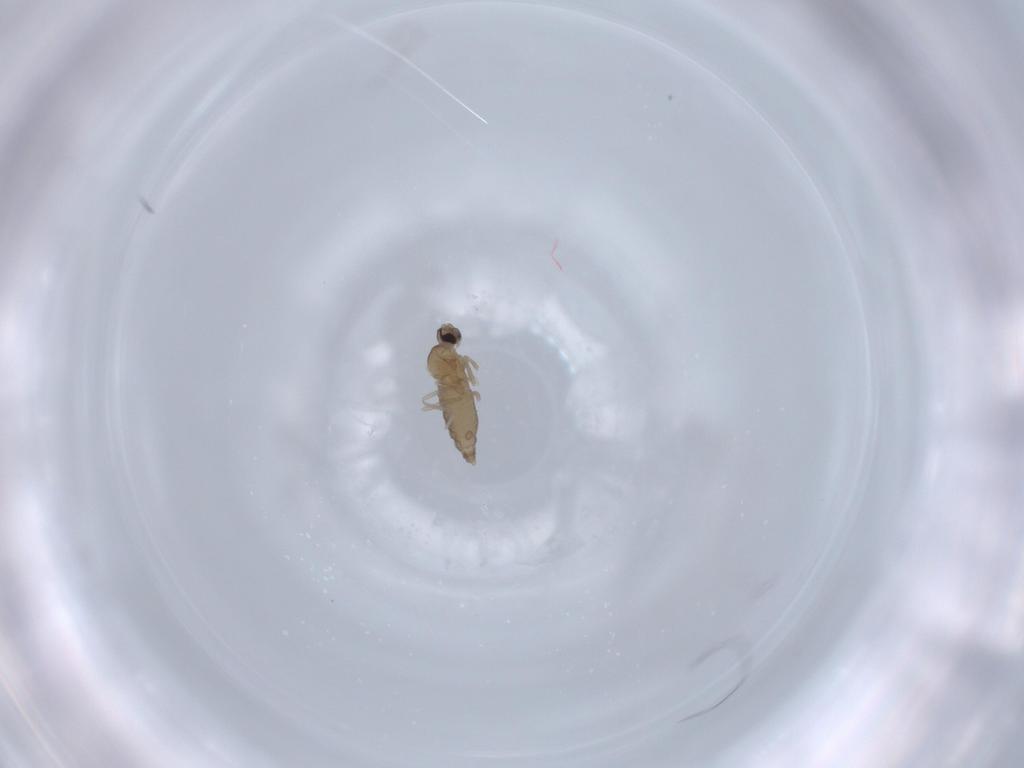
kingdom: Animalia
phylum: Arthropoda
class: Insecta
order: Diptera
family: Cecidomyiidae
